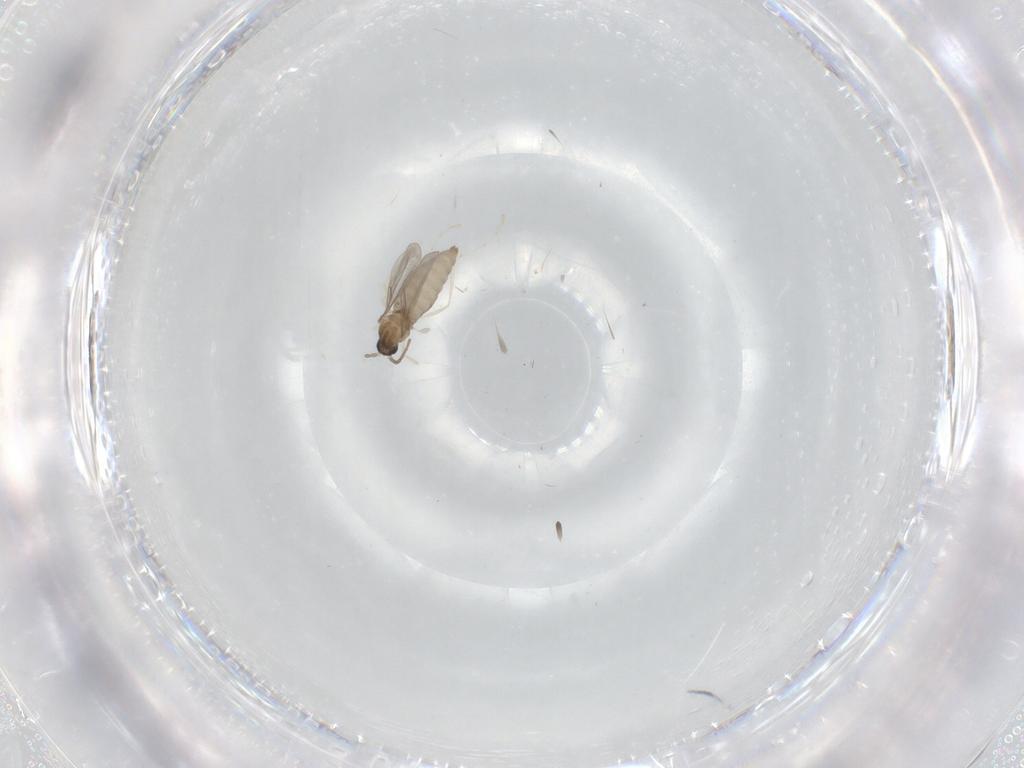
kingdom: Animalia
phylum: Arthropoda
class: Insecta
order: Diptera
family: Cecidomyiidae
